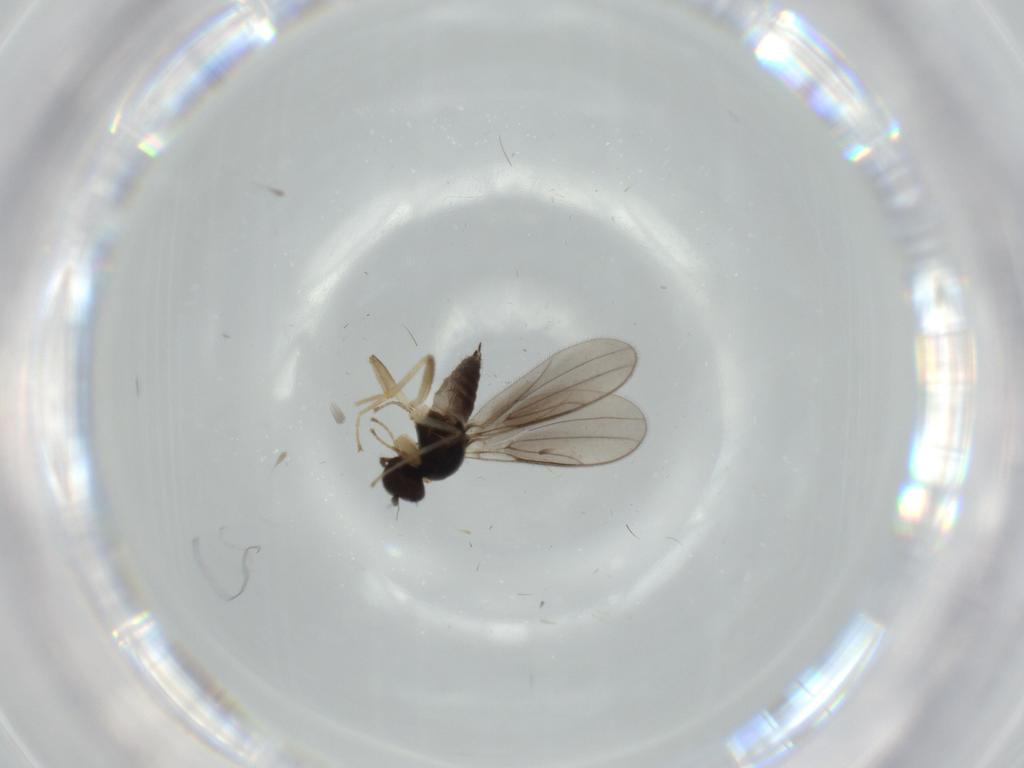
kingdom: Animalia
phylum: Arthropoda
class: Insecta
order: Diptera
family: Hybotidae
